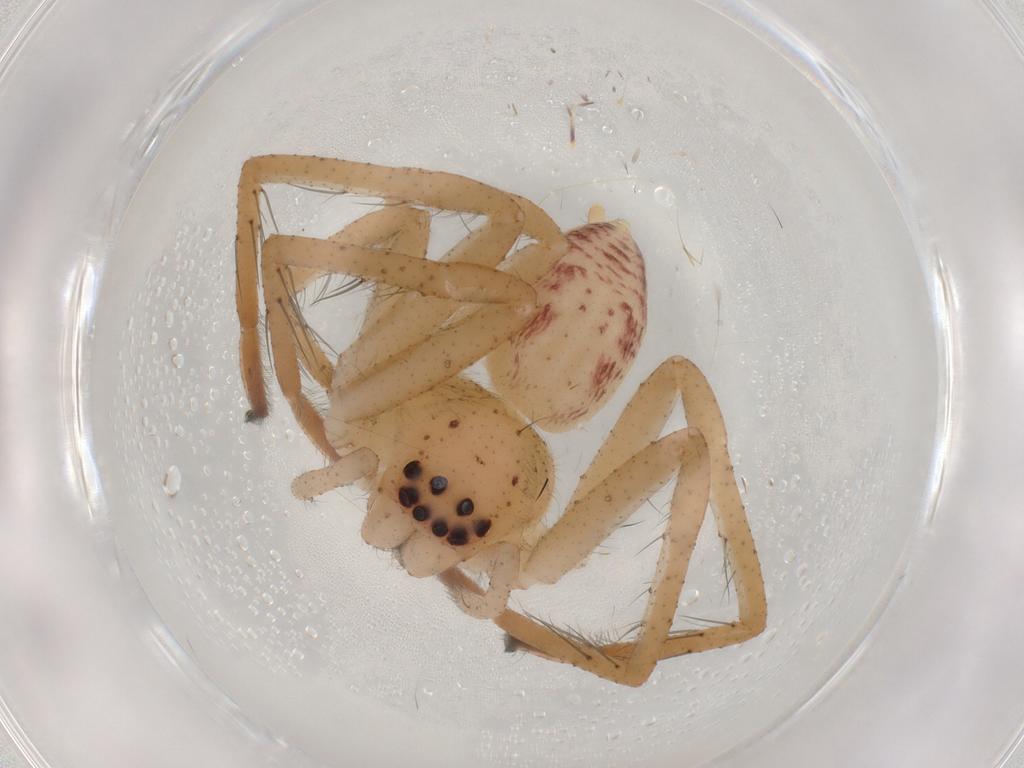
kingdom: Animalia
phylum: Arthropoda
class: Arachnida
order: Araneae
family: Sparassidae
